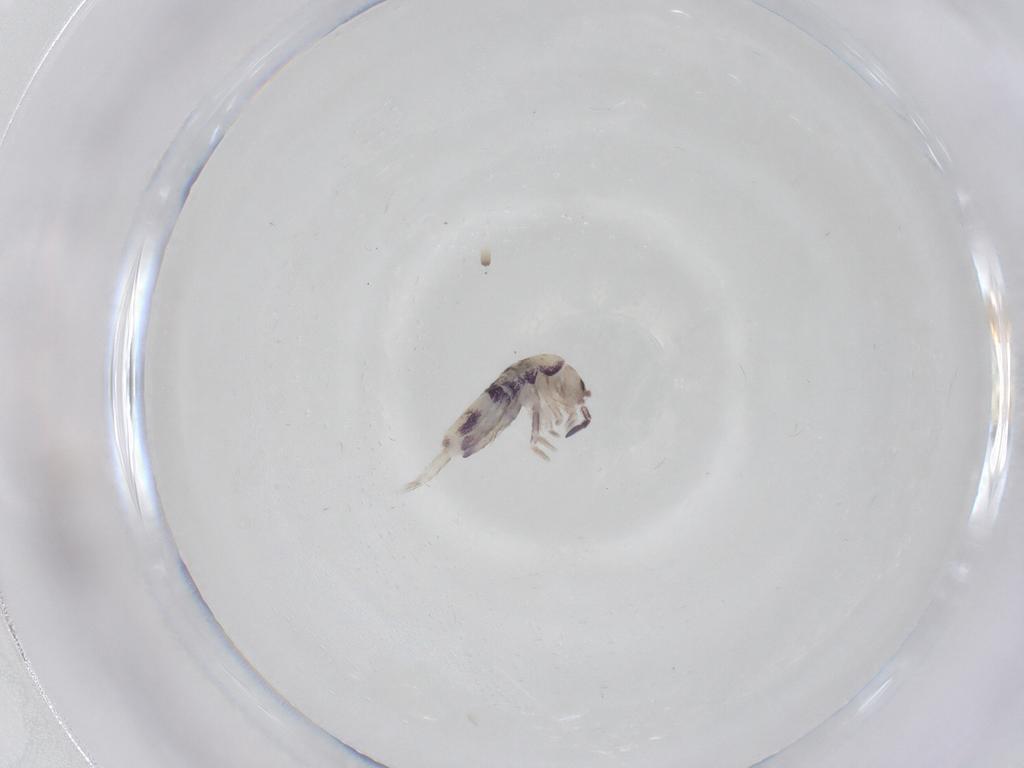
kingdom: Animalia
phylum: Arthropoda
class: Collembola
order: Entomobryomorpha
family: Entomobryidae
